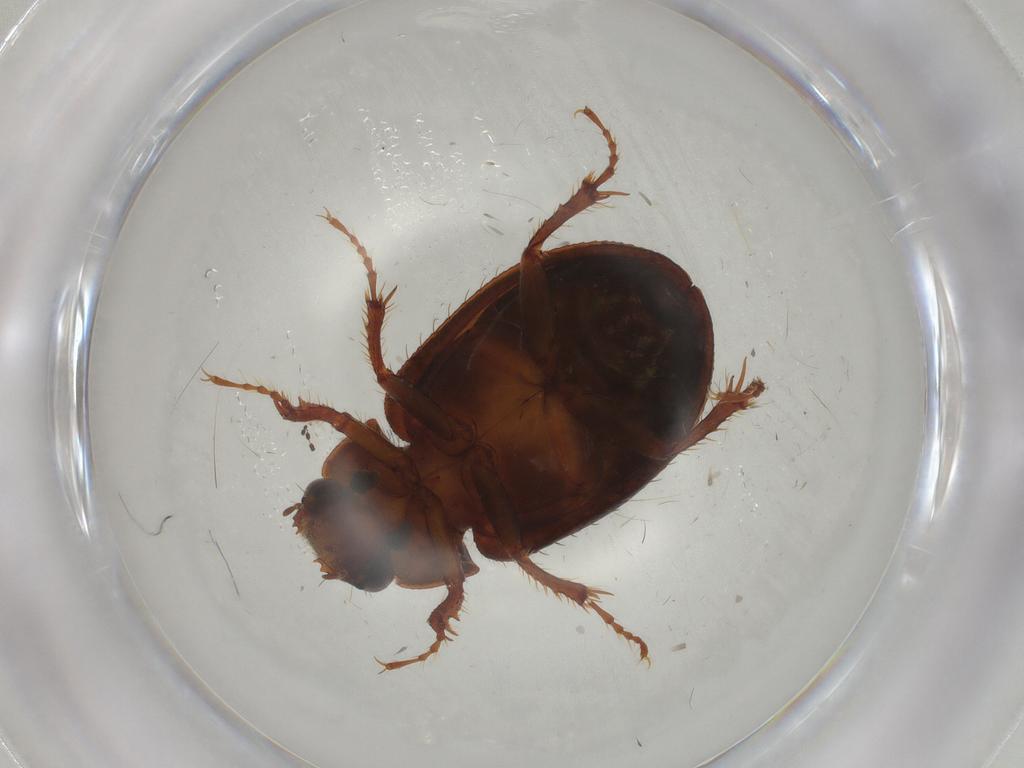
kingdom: Animalia
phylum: Arthropoda
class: Insecta
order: Coleoptera
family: Hybosoridae
